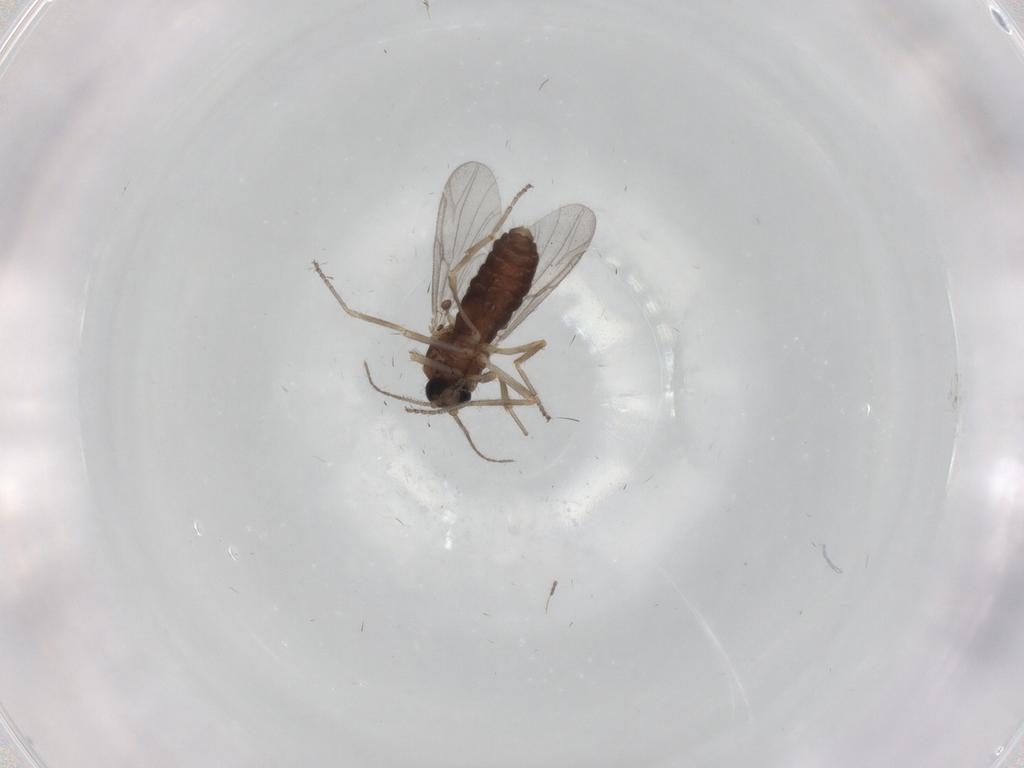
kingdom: Animalia
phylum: Arthropoda
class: Insecta
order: Diptera
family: Ceratopogonidae
